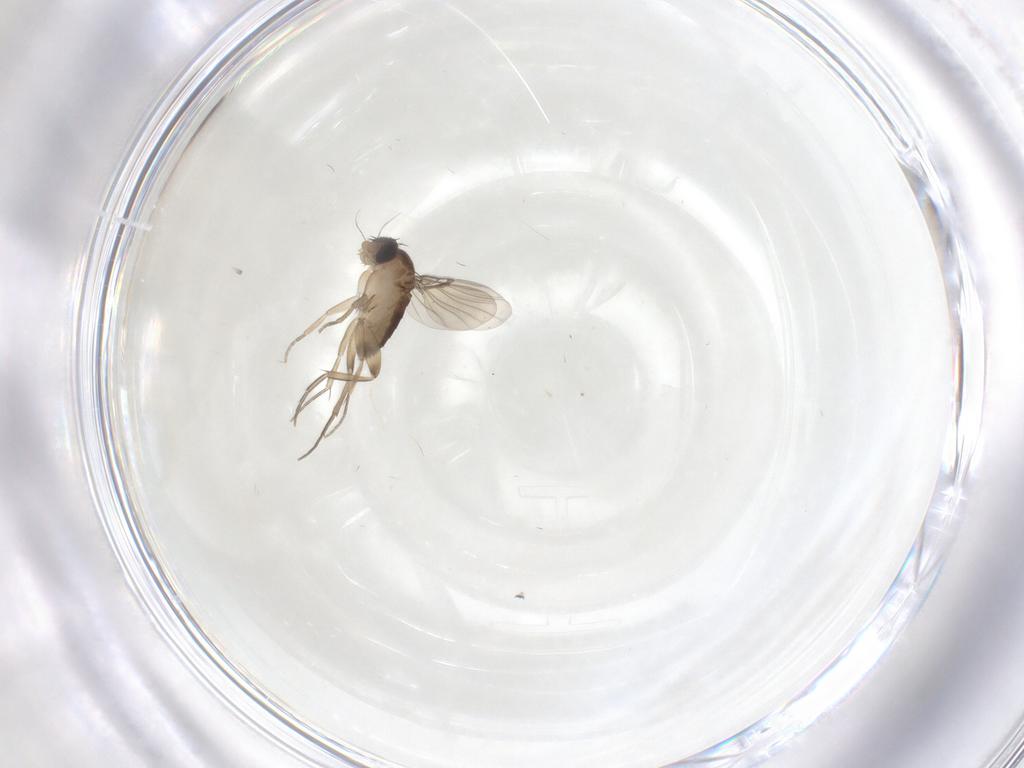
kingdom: Animalia
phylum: Arthropoda
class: Insecta
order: Diptera
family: Phoridae
